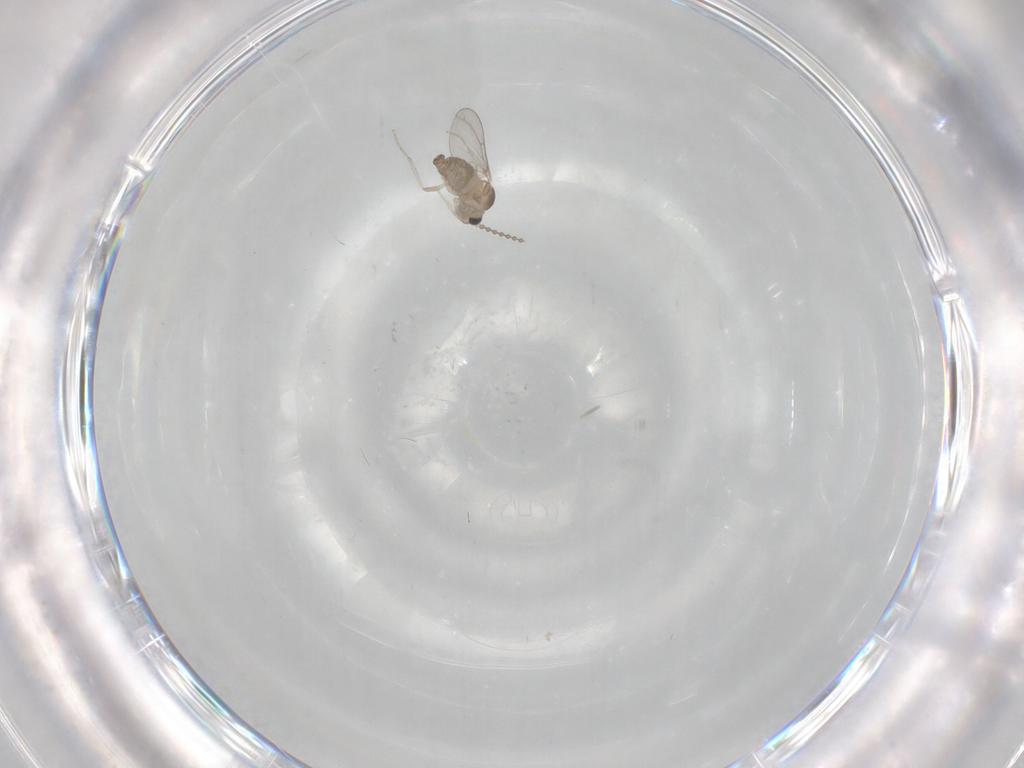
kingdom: Animalia
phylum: Arthropoda
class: Insecta
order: Diptera
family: Cecidomyiidae
